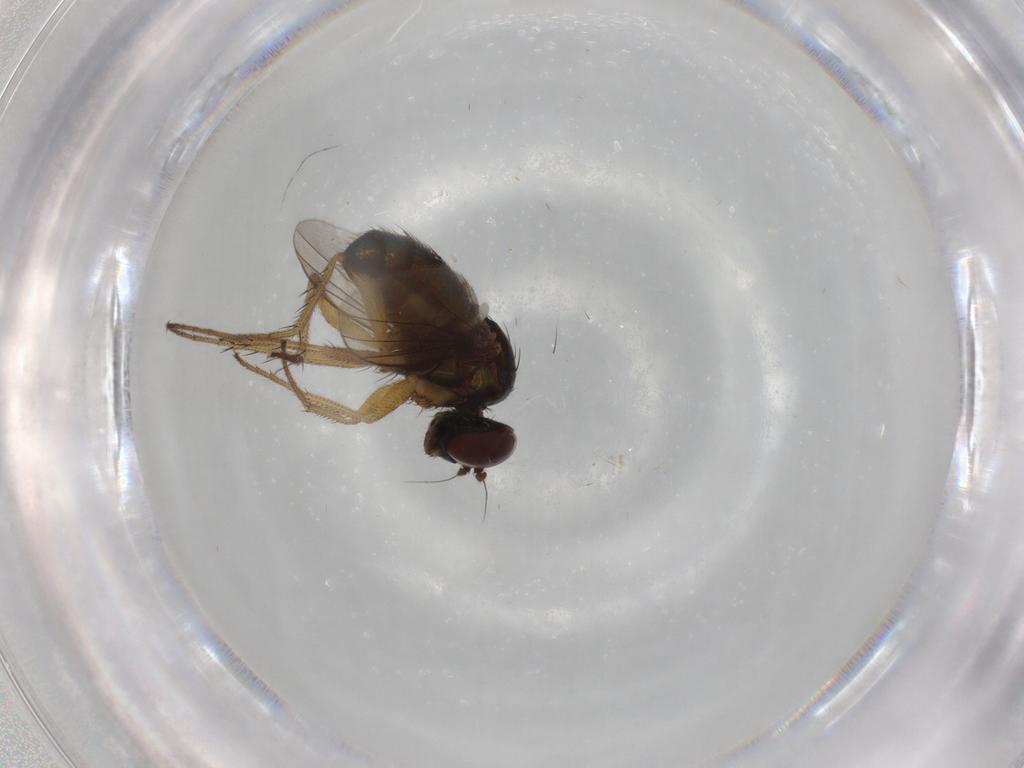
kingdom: Animalia
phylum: Arthropoda
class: Insecta
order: Diptera
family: Dolichopodidae
